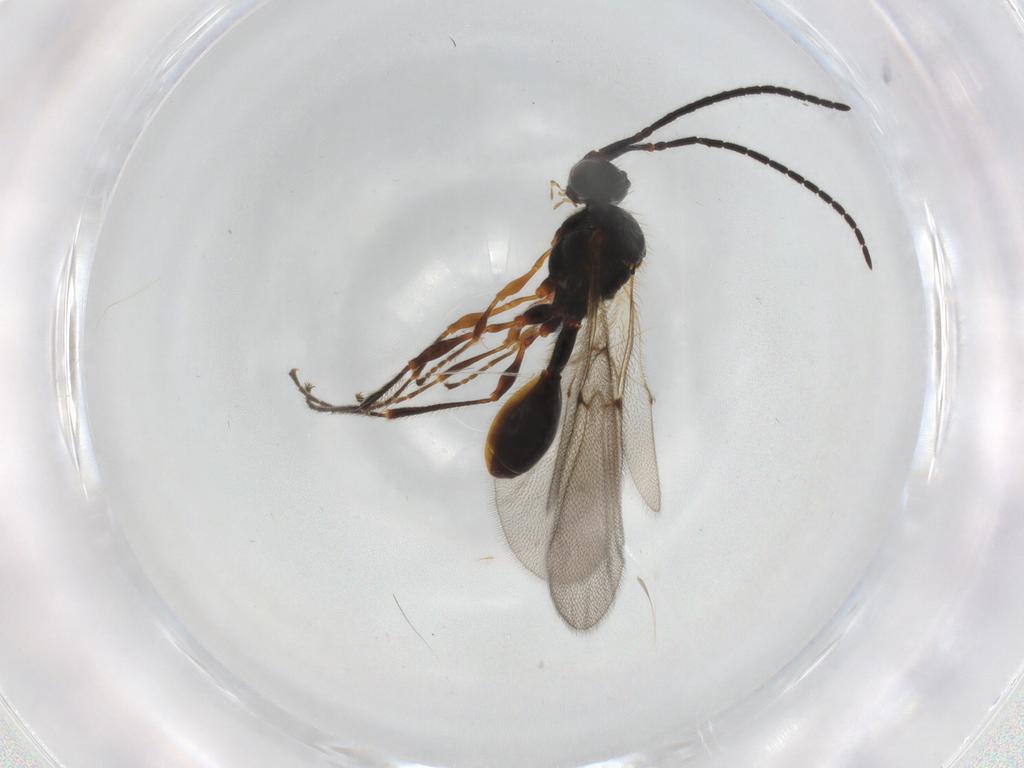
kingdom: Animalia
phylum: Arthropoda
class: Insecta
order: Hymenoptera
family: Diapriidae
